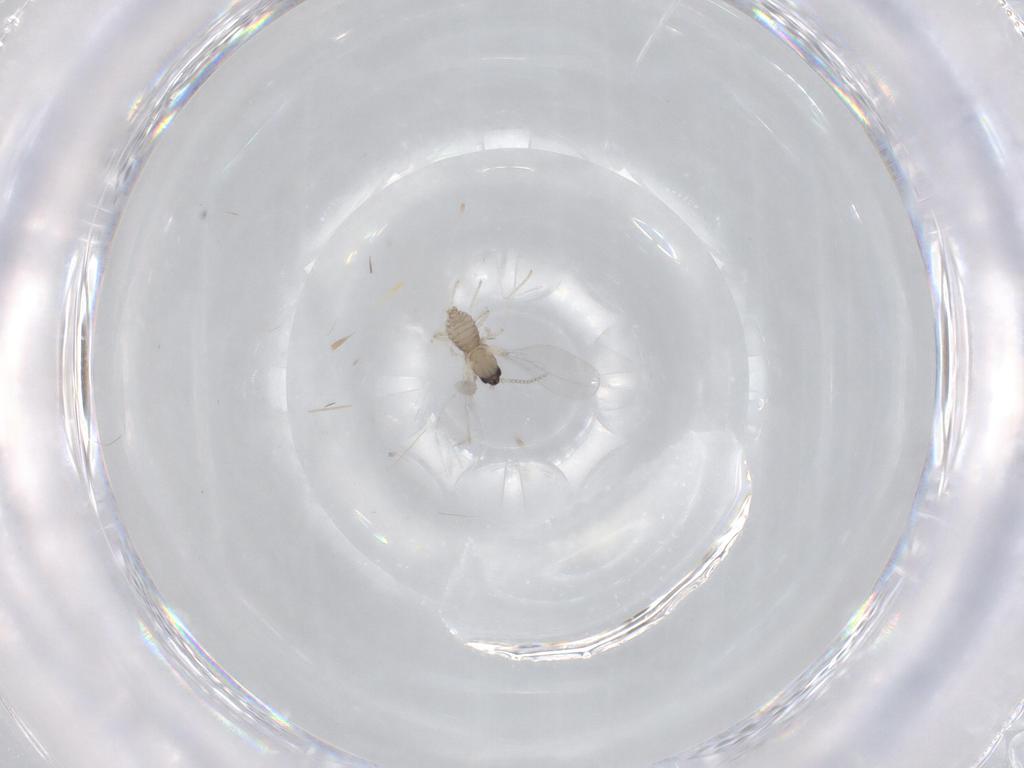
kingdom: Animalia
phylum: Arthropoda
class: Insecta
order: Diptera
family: Cecidomyiidae
